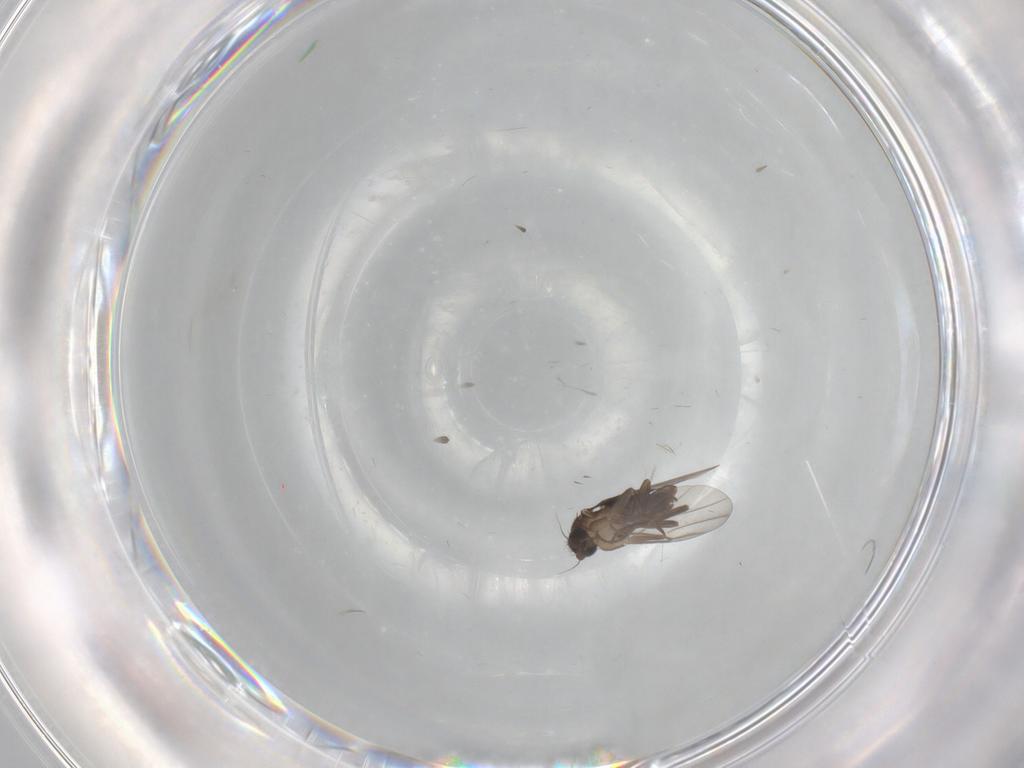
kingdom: Animalia
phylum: Arthropoda
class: Insecta
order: Diptera
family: Phoridae
